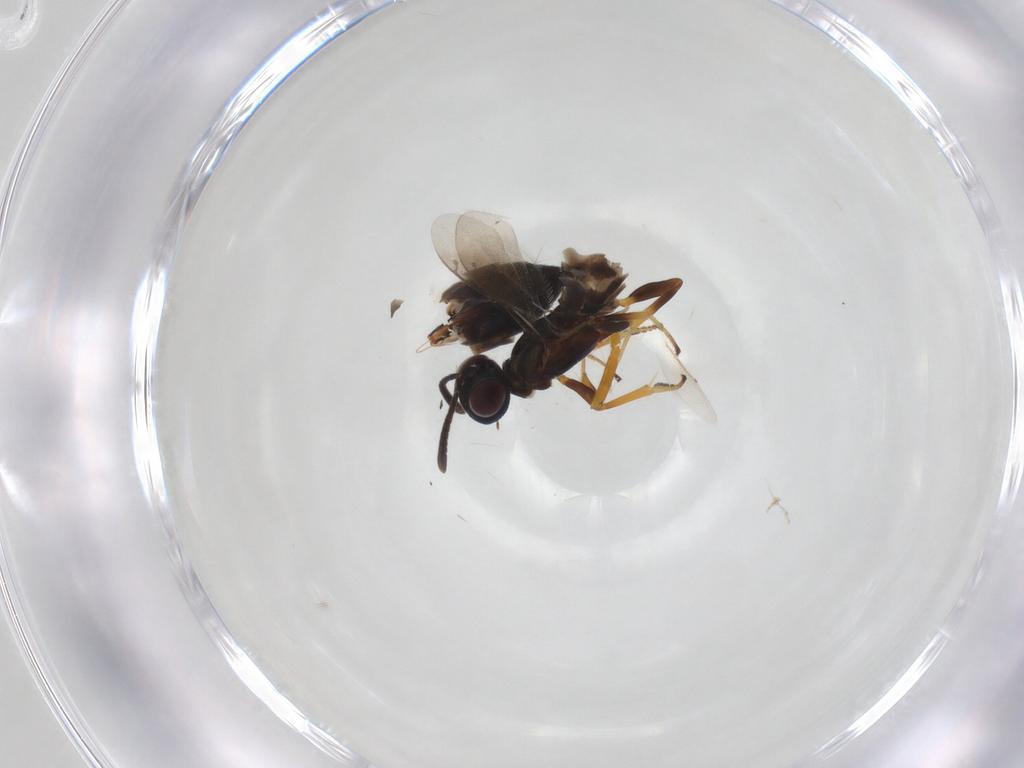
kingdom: Animalia
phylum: Arthropoda
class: Insecta
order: Hymenoptera
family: Eupelmidae
